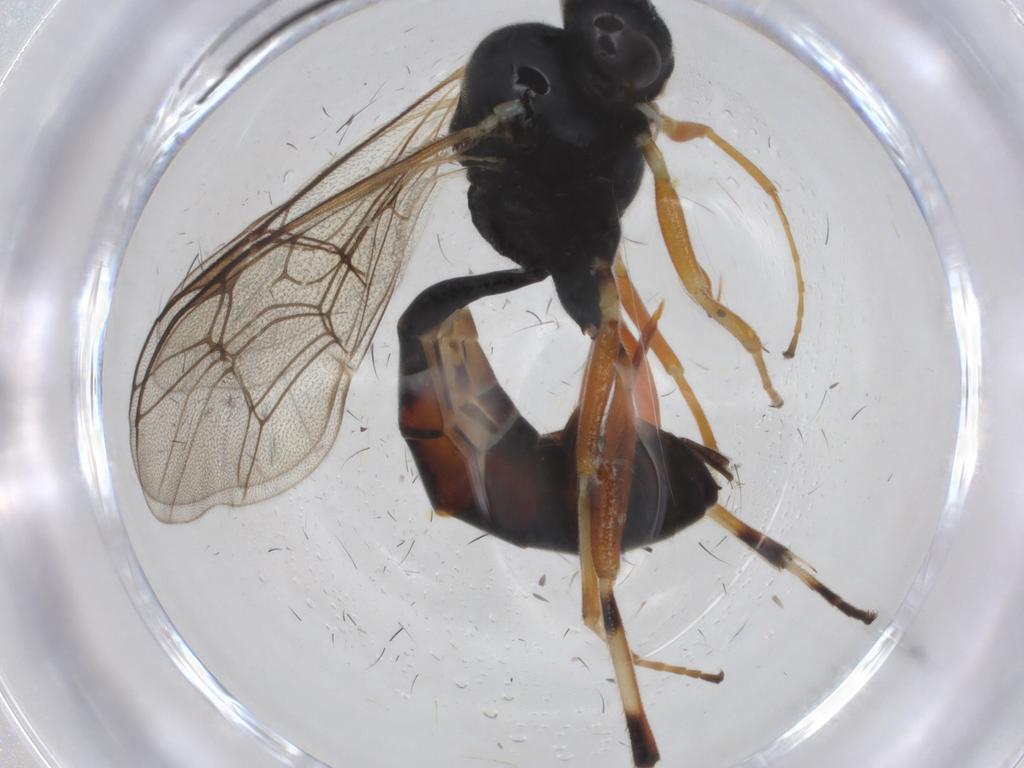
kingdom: Animalia
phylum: Arthropoda
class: Insecta
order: Hymenoptera
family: Ichneumonidae
